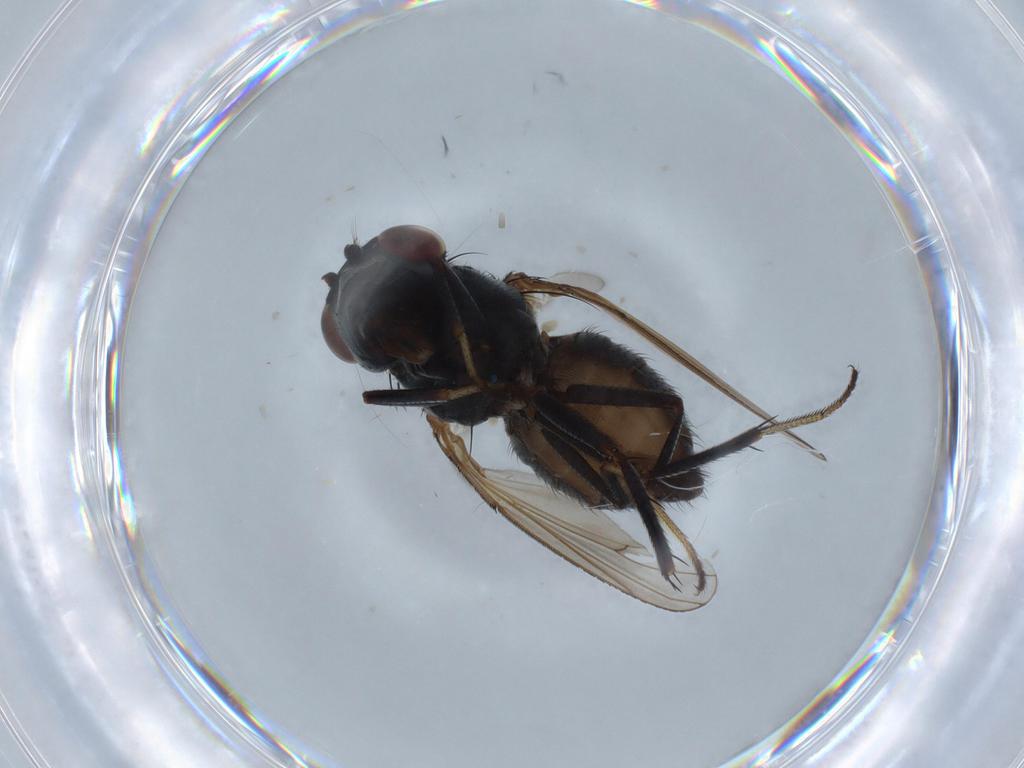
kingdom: Animalia
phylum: Arthropoda
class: Insecta
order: Diptera
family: Ephydridae
